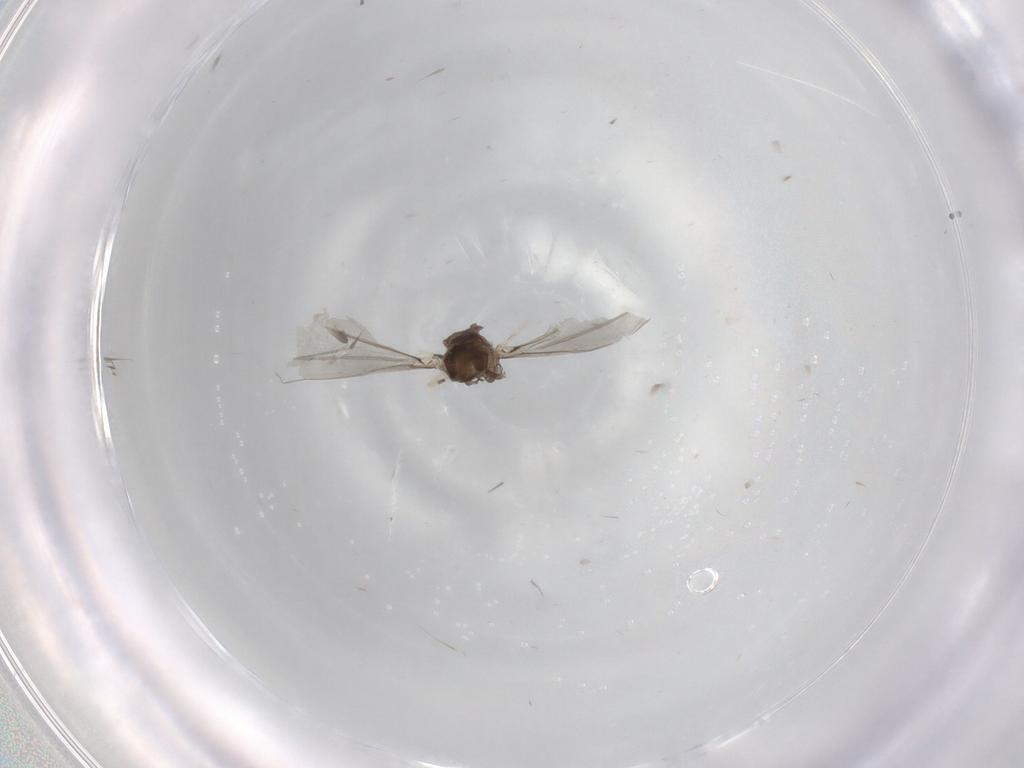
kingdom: Animalia
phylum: Arthropoda
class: Insecta
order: Diptera
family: Psychodidae
